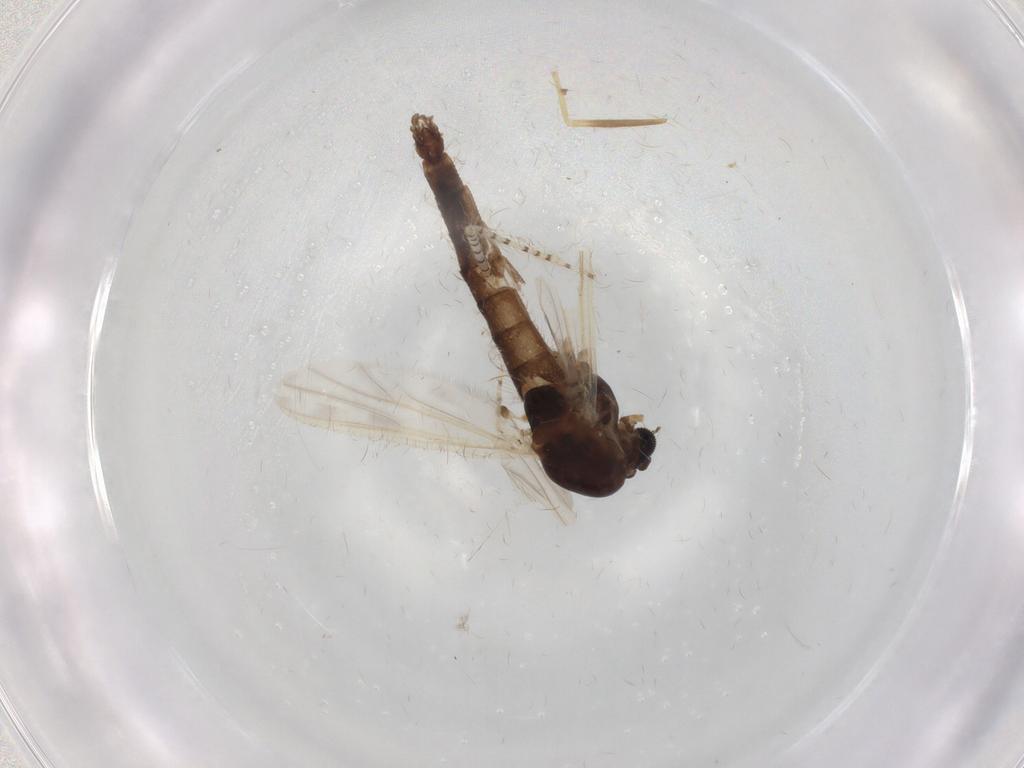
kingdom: Animalia
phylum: Arthropoda
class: Insecta
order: Diptera
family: Chironomidae
